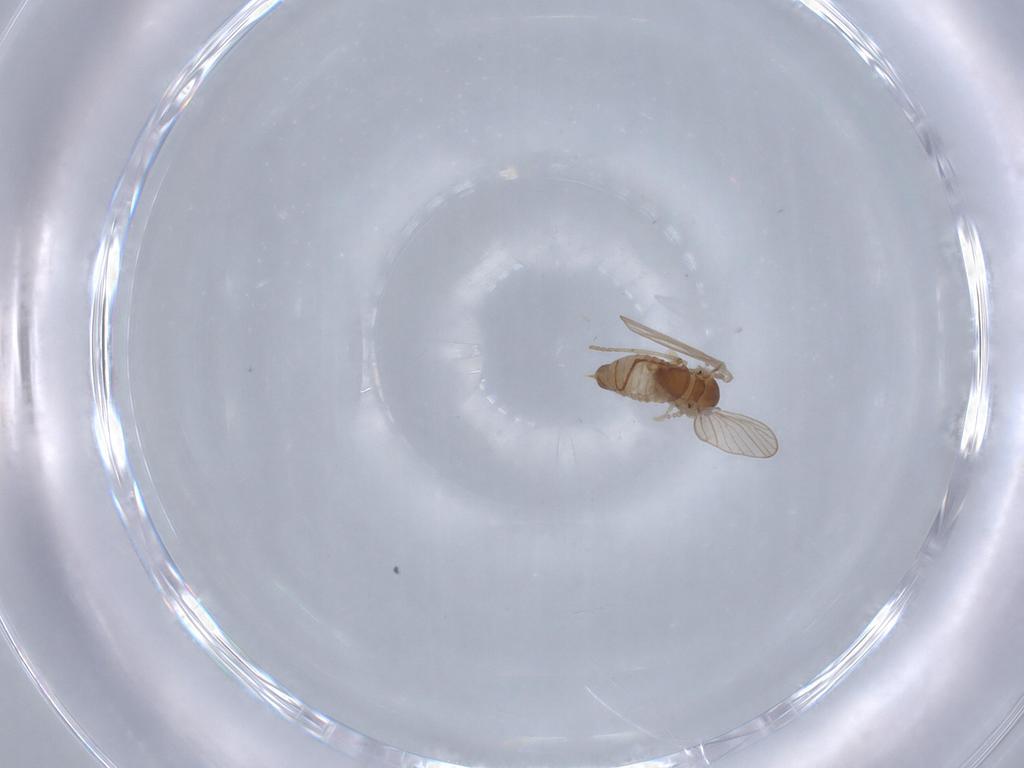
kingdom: Animalia
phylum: Arthropoda
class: Insecta
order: Diptera
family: Psychodidae
